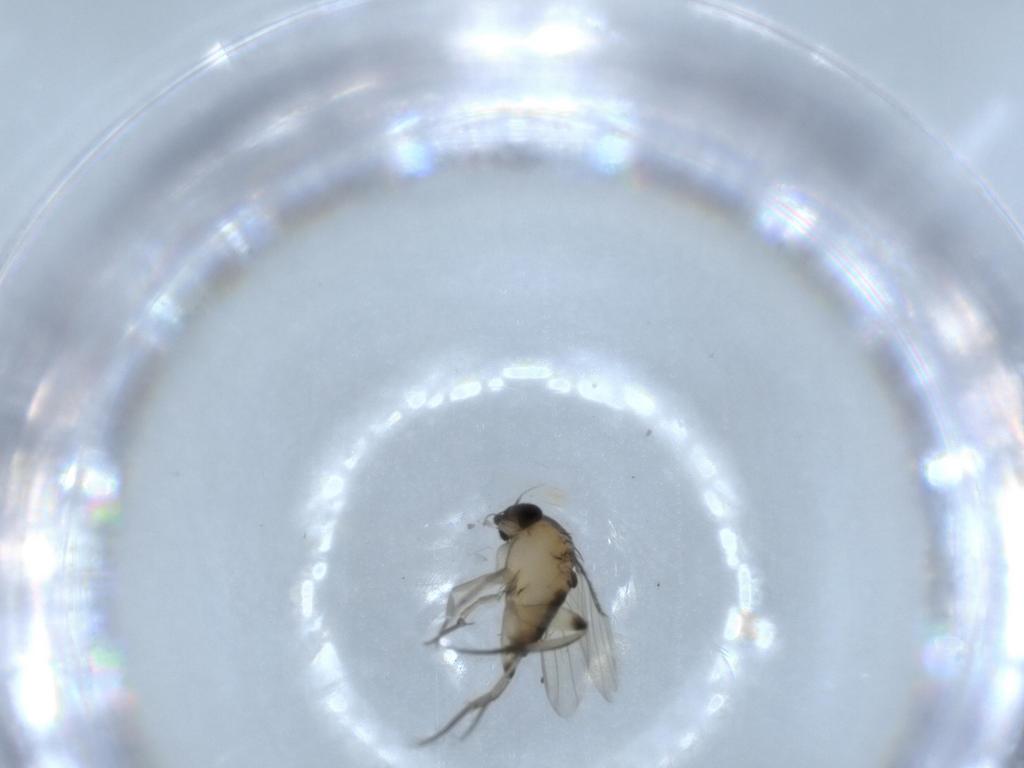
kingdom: Animalia
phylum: Arthropoda
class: Insecta
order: Diptera
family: Phoridae
